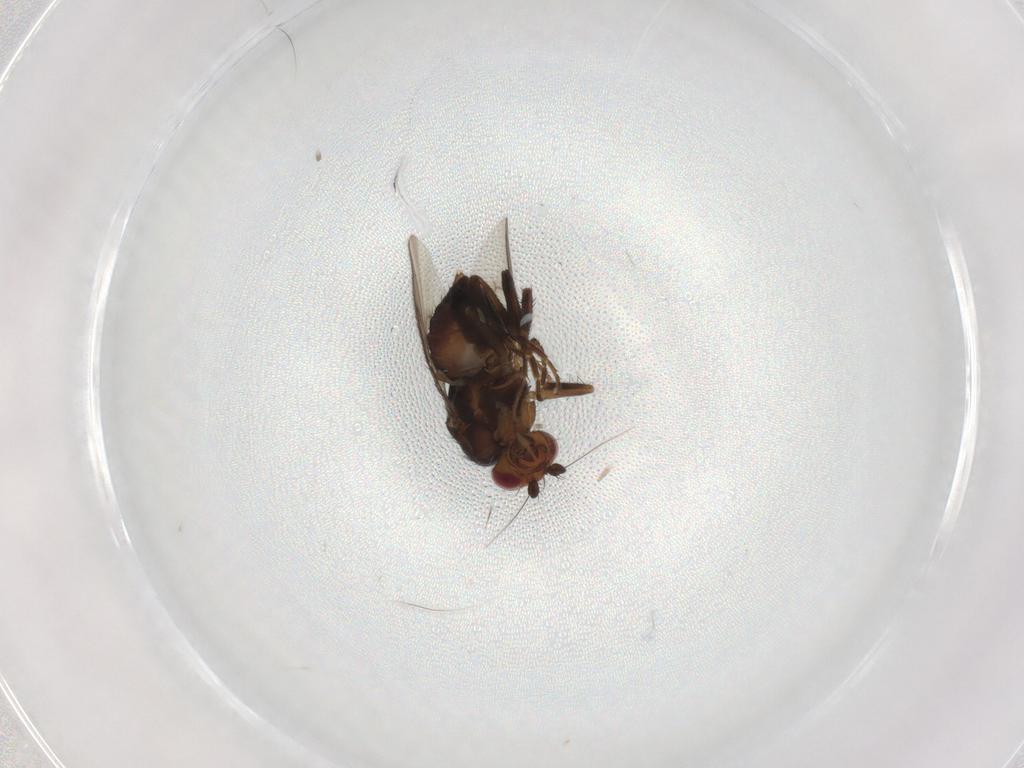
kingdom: Animalia
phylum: Arthropoda
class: Insecta
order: Diptera
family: Sphaeroceridae
